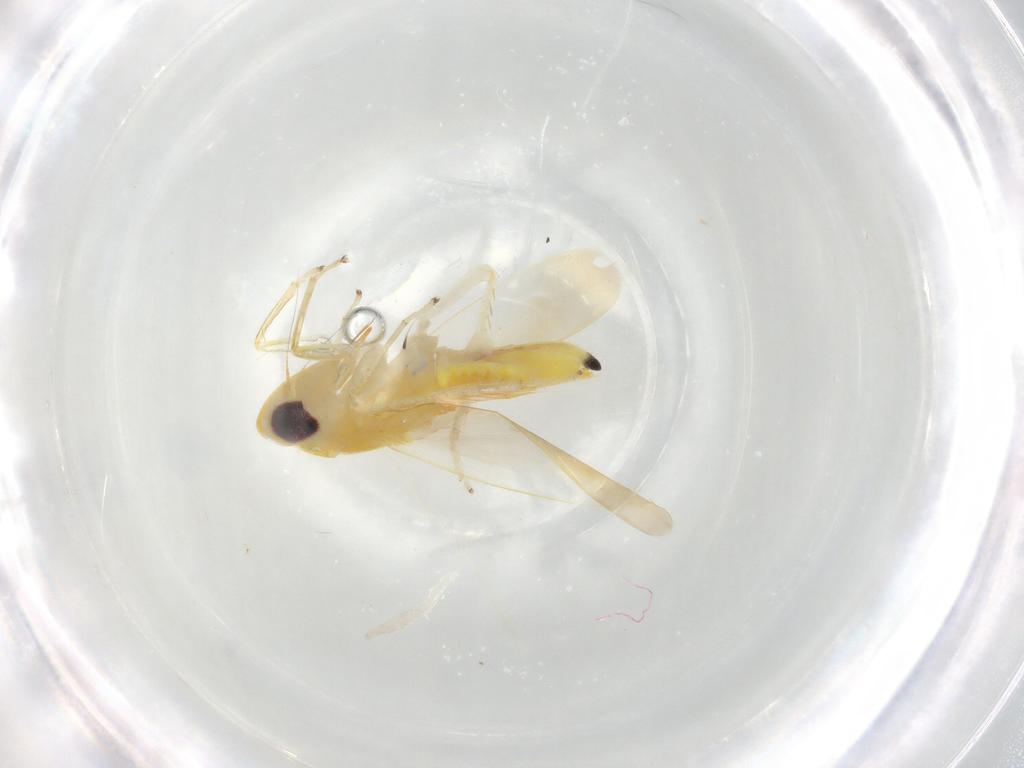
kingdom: Animalia
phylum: Arthropoda
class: Insecta
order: Hemiptera
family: Cicadellidae
